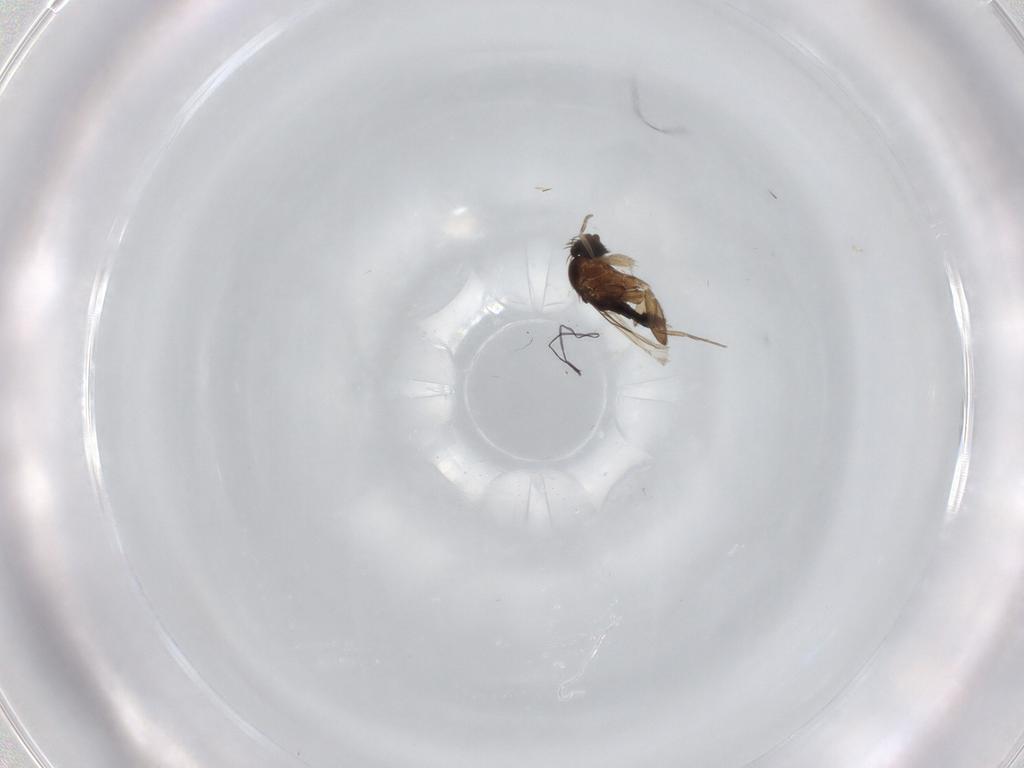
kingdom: Animalia
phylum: Arthropoda
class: Insecta
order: Diptera
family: Phoridae
